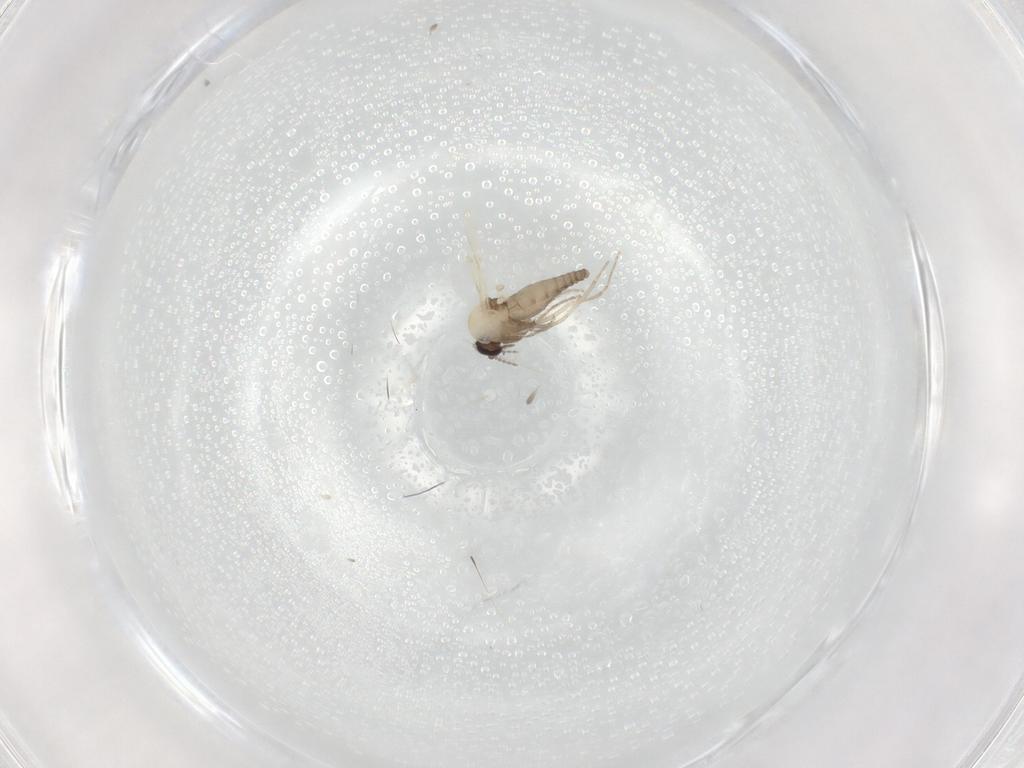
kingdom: Animalia
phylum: Arthropoda
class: Insecta
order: Diptera
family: Ceratopogonidae
